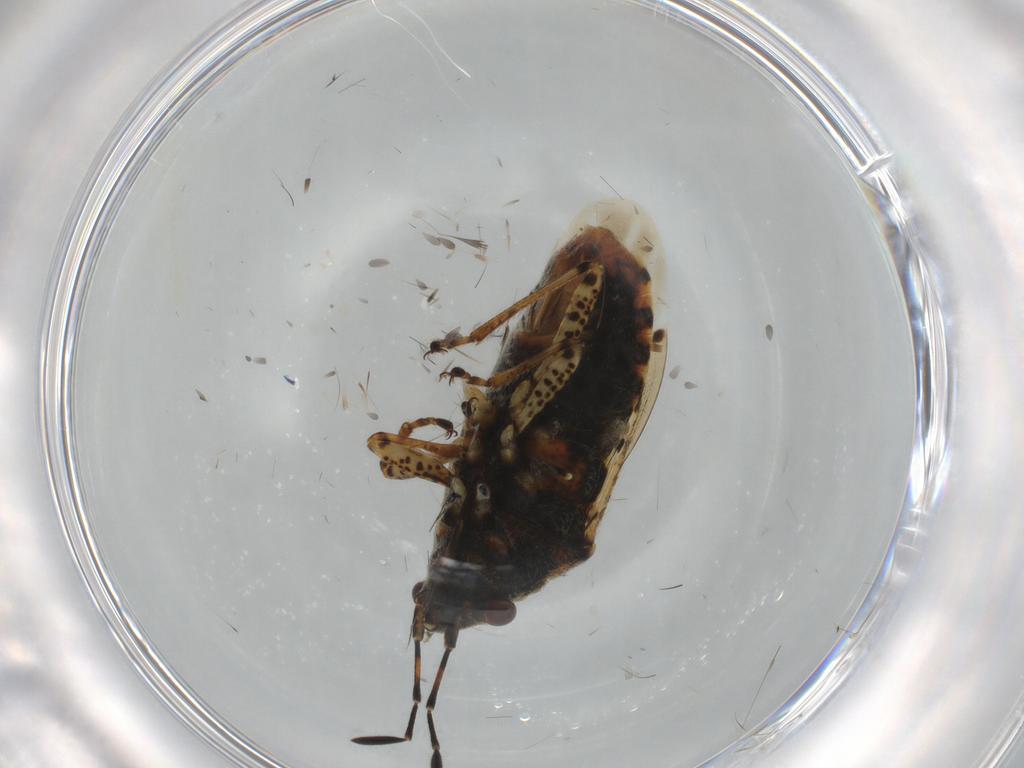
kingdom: Animalia
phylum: Arthropoda
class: Insecta
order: Hemiptera
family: Lygaeidae
